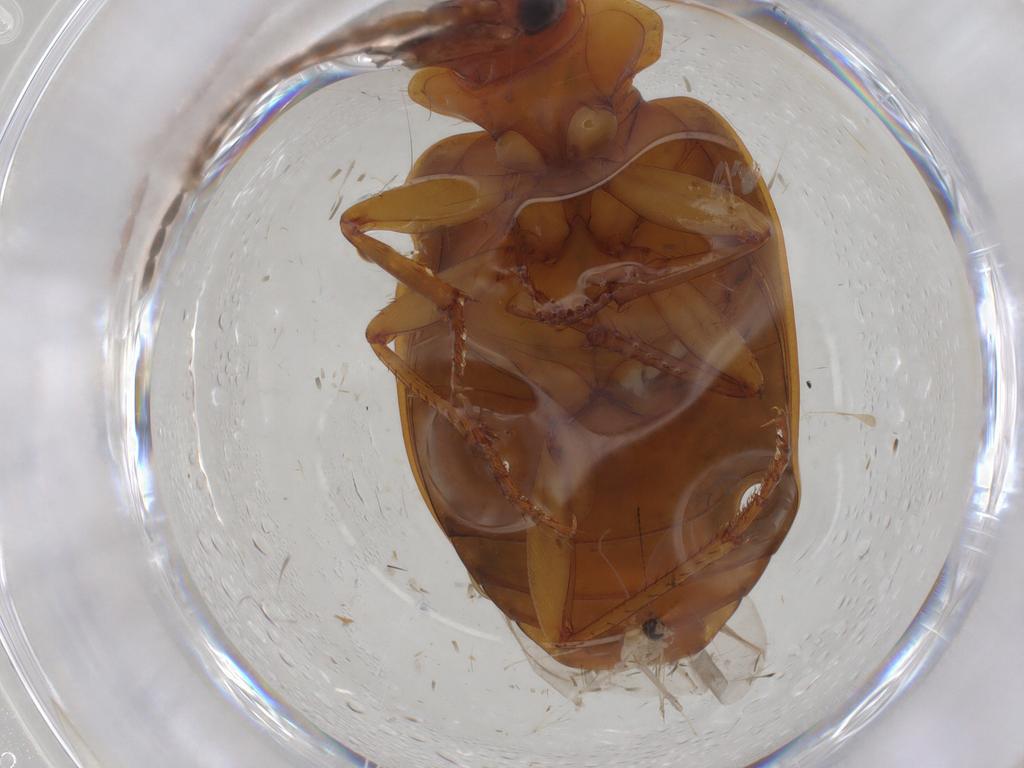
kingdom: Animalia
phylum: Arthropoda
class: Insecta
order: Coleoptera
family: Carabidae
